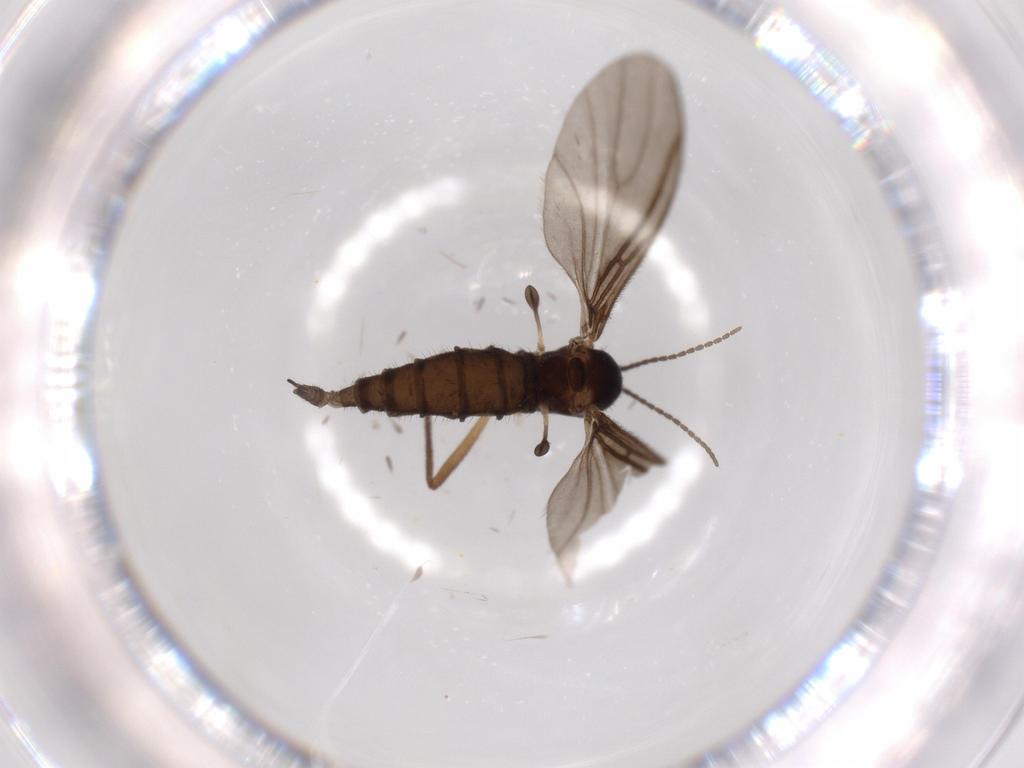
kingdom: Animalia
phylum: Arthropoda
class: Insecta
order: Diptera
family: Sciaridae
